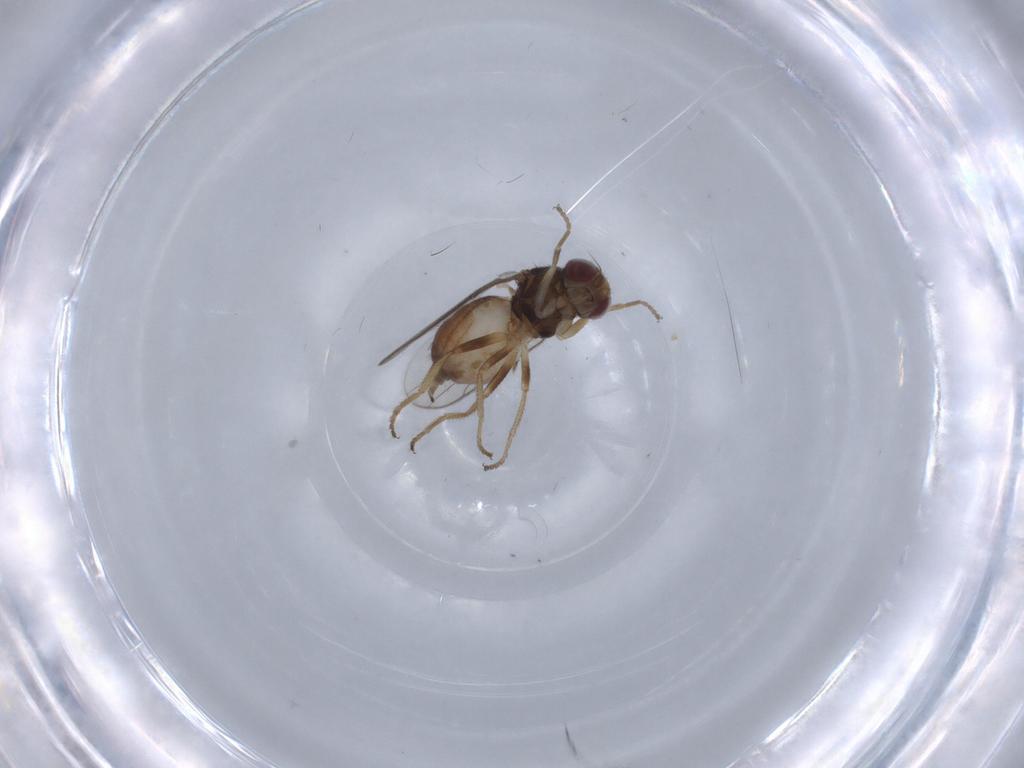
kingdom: Animalia
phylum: Arthropoda
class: Insecta
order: Diptera
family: Chloropidae
